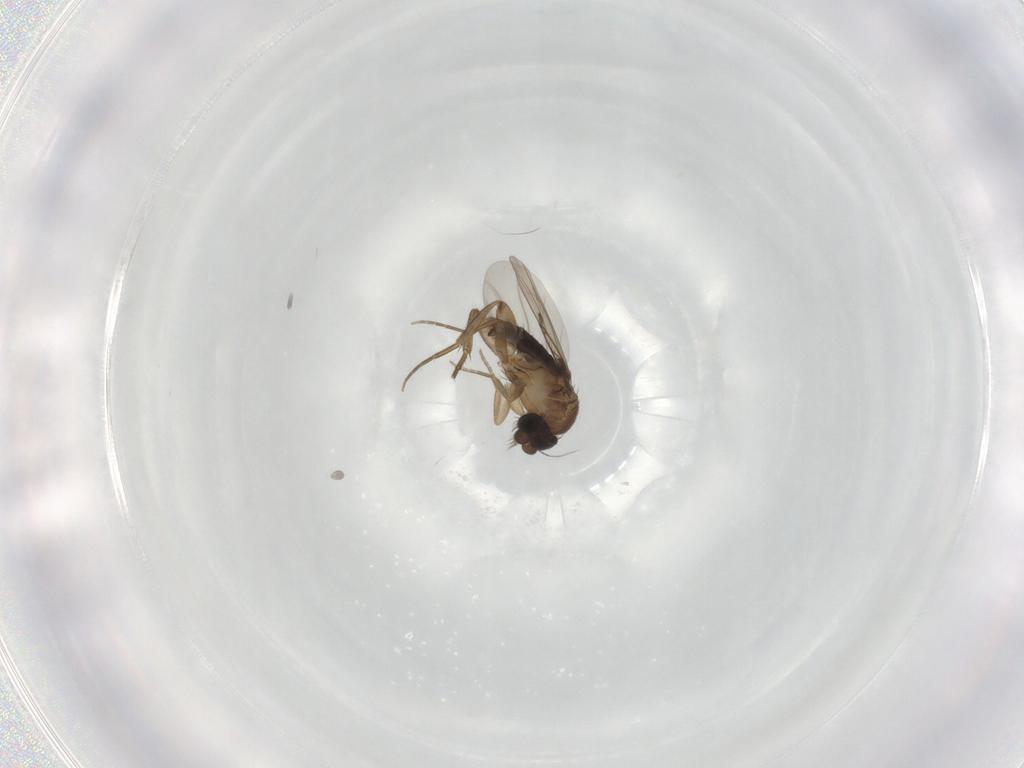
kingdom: Animalia
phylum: Arthropoda
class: Insecta
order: Diptera
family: Phoridae
